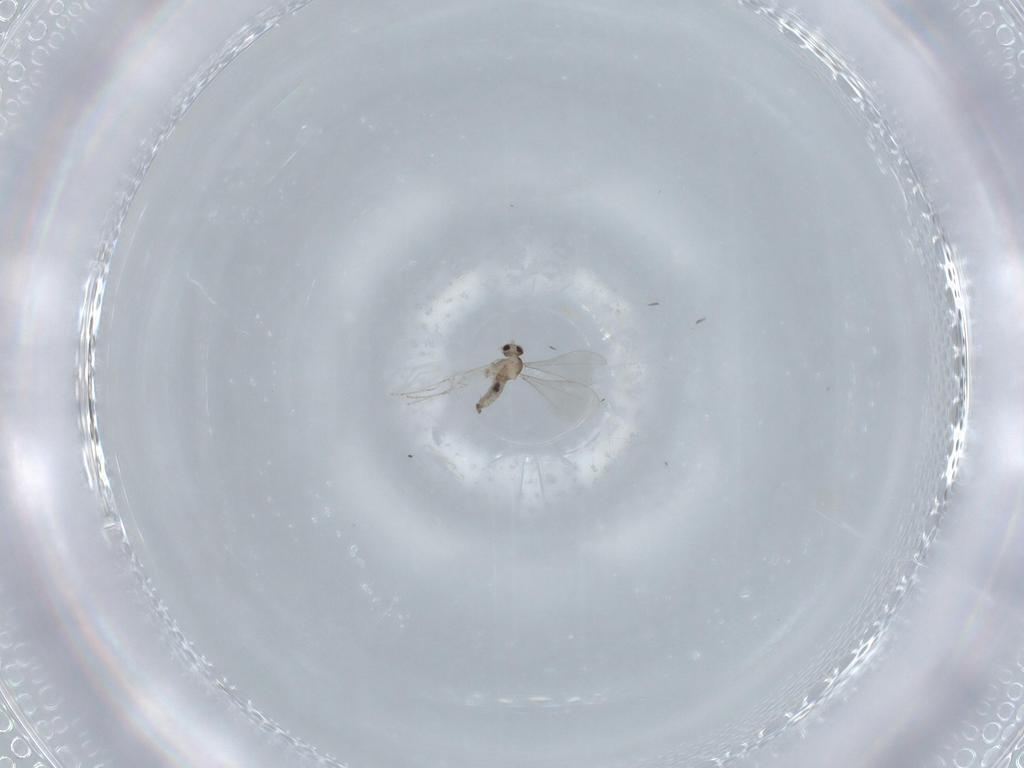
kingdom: Animalia
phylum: Arthropoda
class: Insecta
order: Diptera
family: Cecidomyiidae
